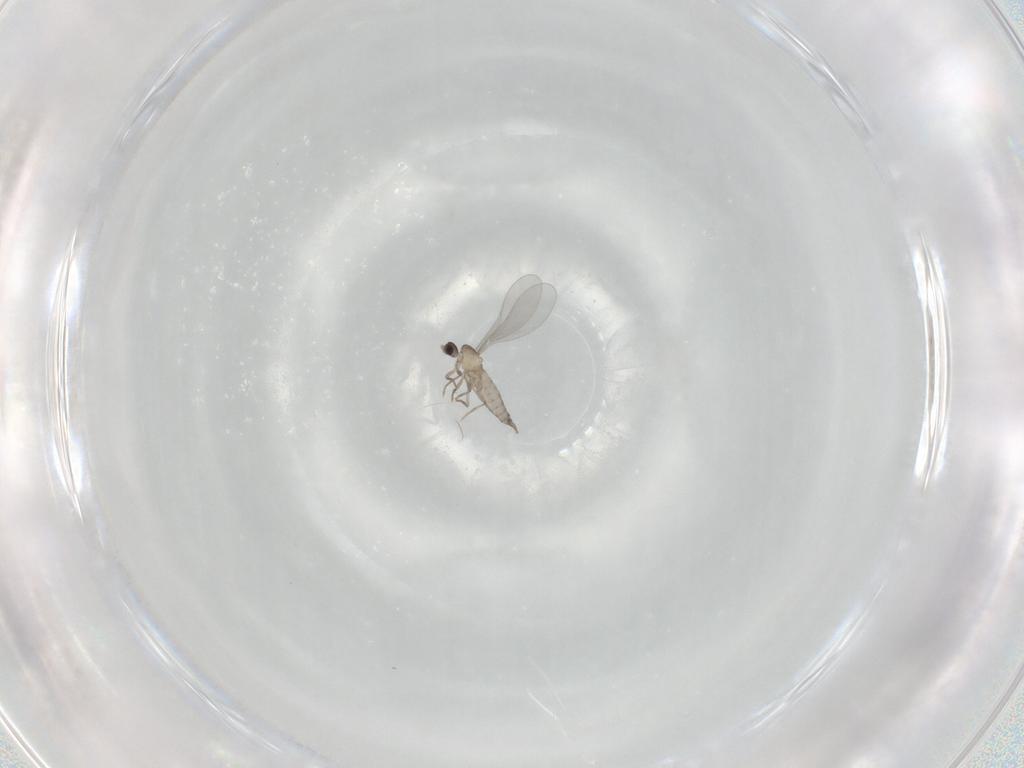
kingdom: Animalia
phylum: Arthropoda
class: Insecta
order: Diptera
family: Cecidomyiidae
